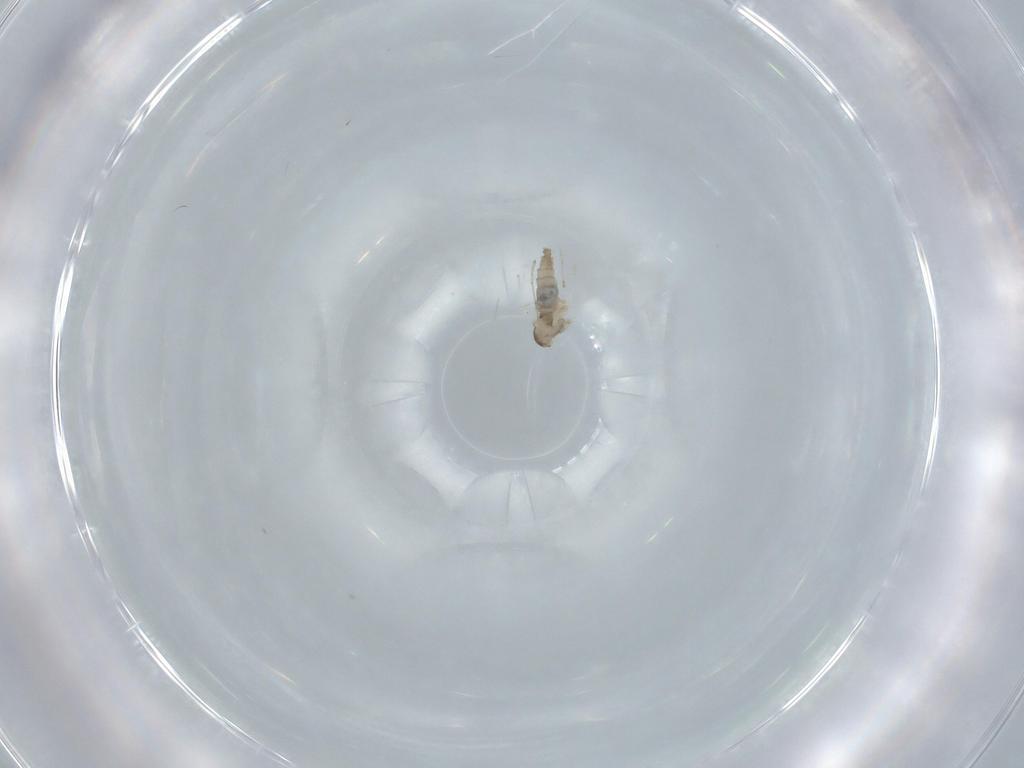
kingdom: Animalia
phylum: Arthropoda
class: Insecta
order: Diptera
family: Cecidomyiidae
